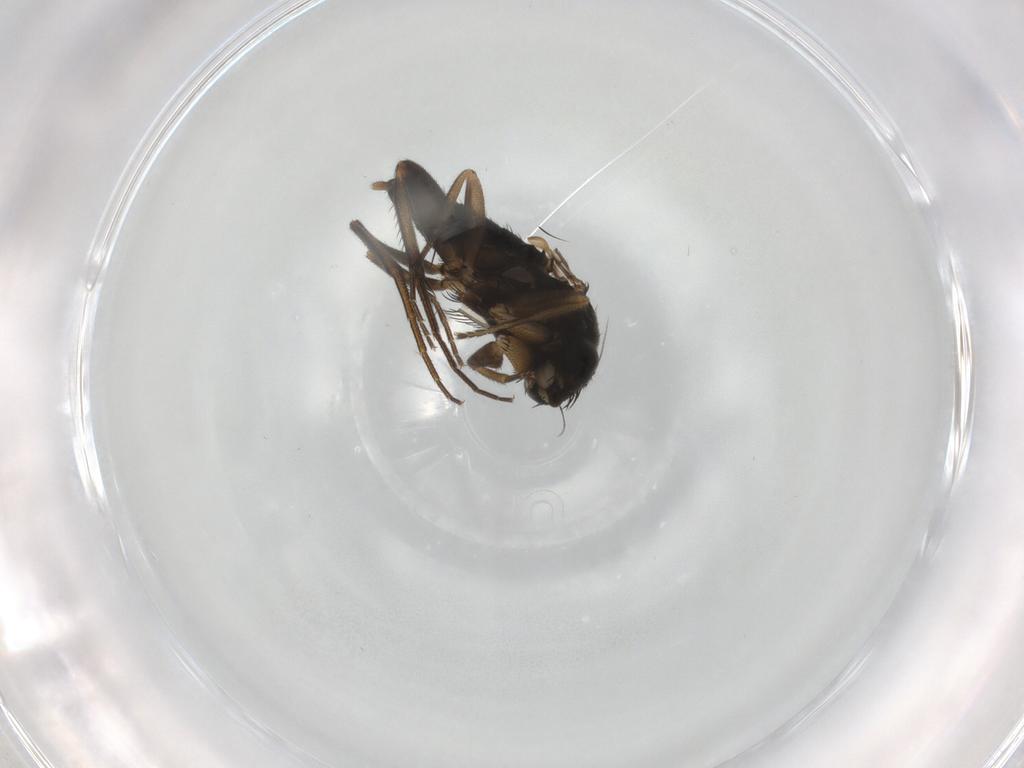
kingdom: Animalia
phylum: Arthropoda
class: Insecta
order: Diptera
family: Phoridae
